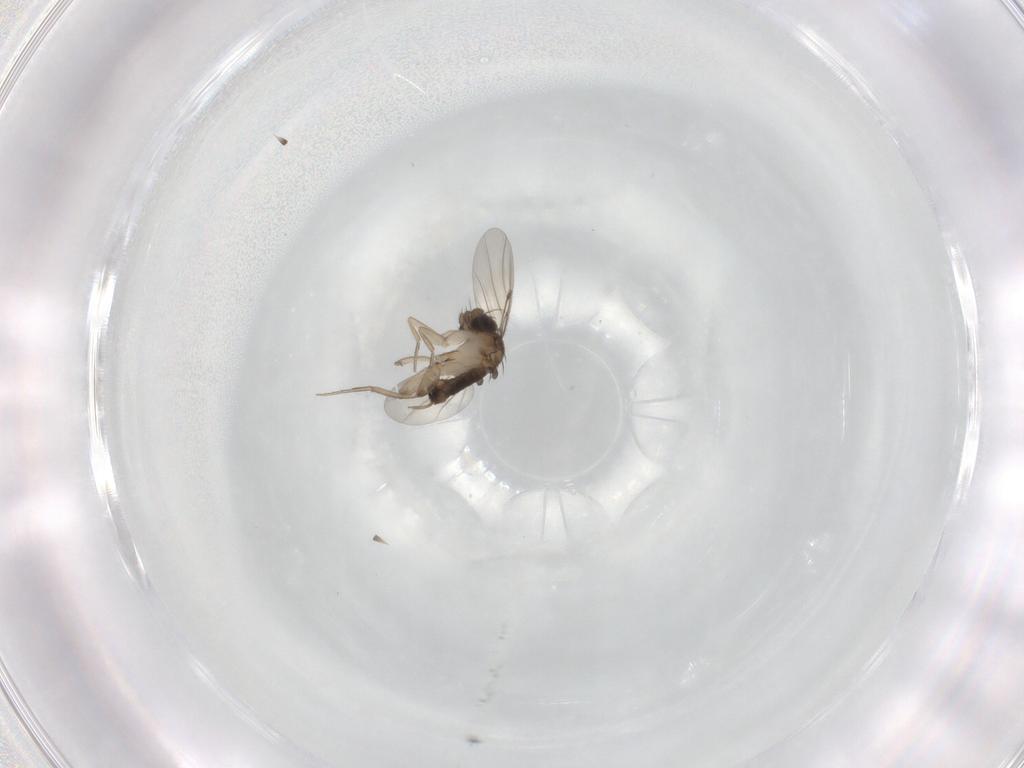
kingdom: Animalia
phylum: Arthropoda
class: Insecta
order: Diptera
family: Phoridae
